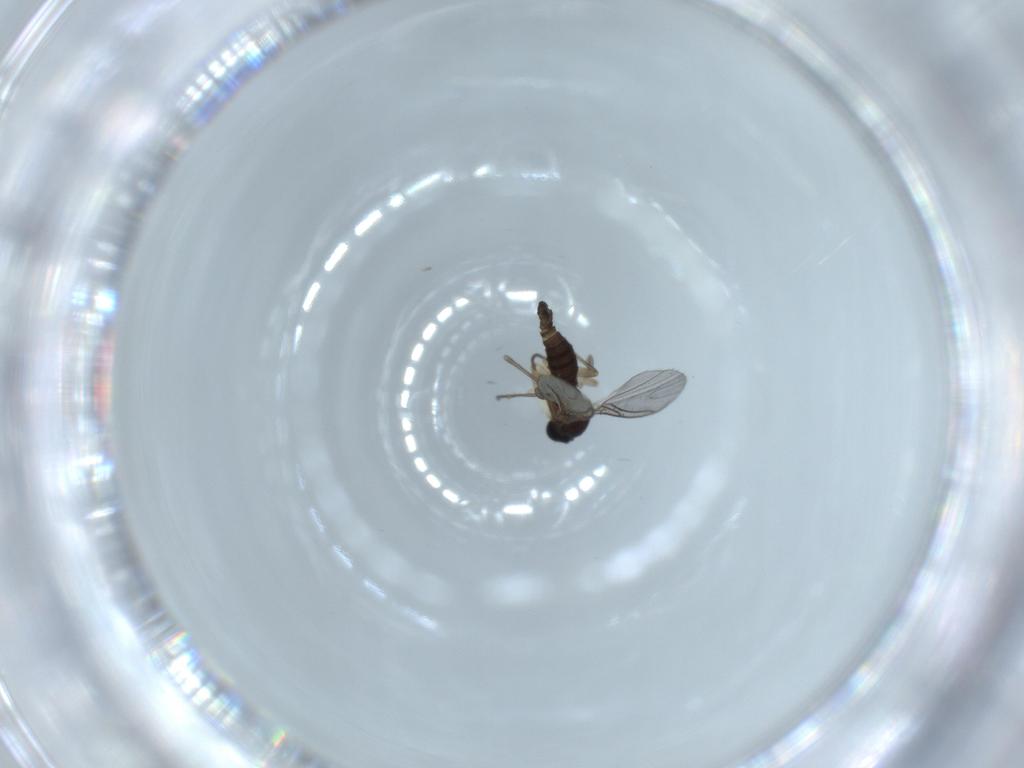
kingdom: Animalia
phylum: Arthropoda
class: Insecta
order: Diptera
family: Sciaridae
